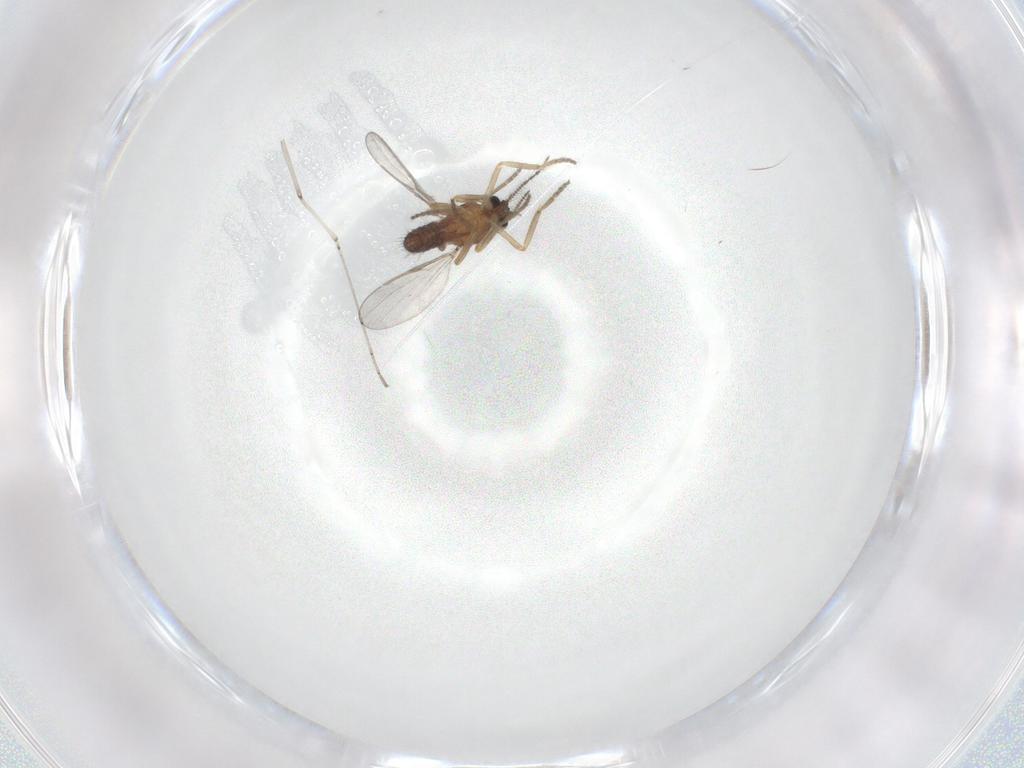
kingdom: Animalia
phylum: Arthropoda
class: Insecta
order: Diptera
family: Ceratopogonidae
